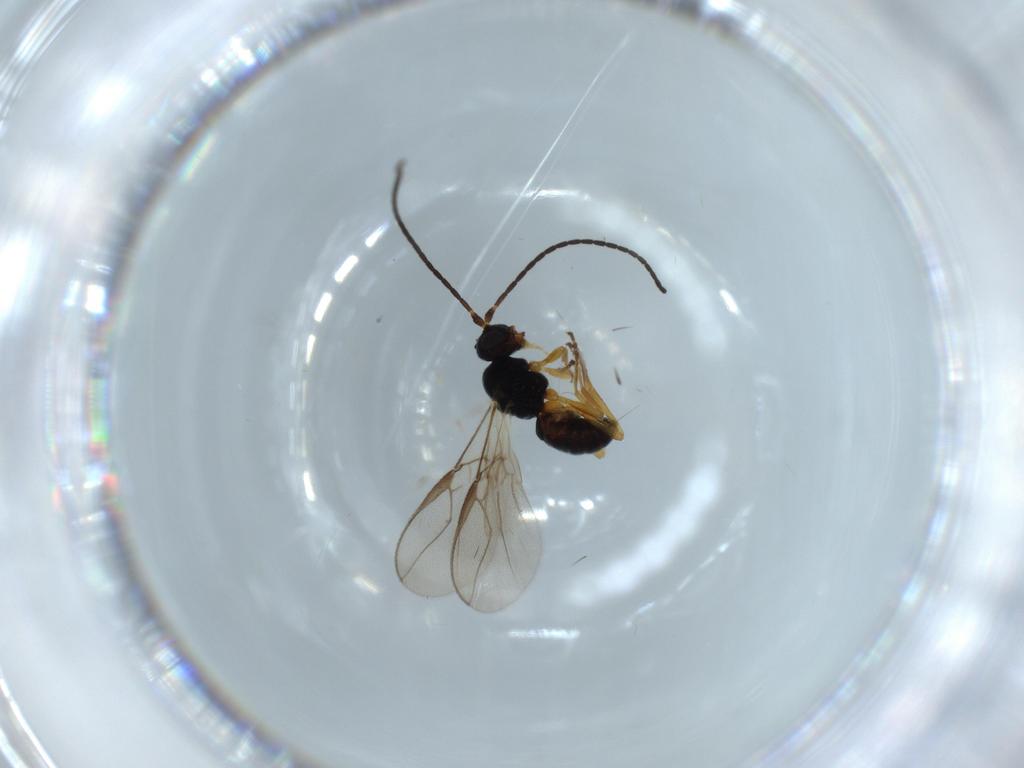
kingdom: Animalia
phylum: Arthropoda
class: Insecta
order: Hymenoptera
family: Braconidae
